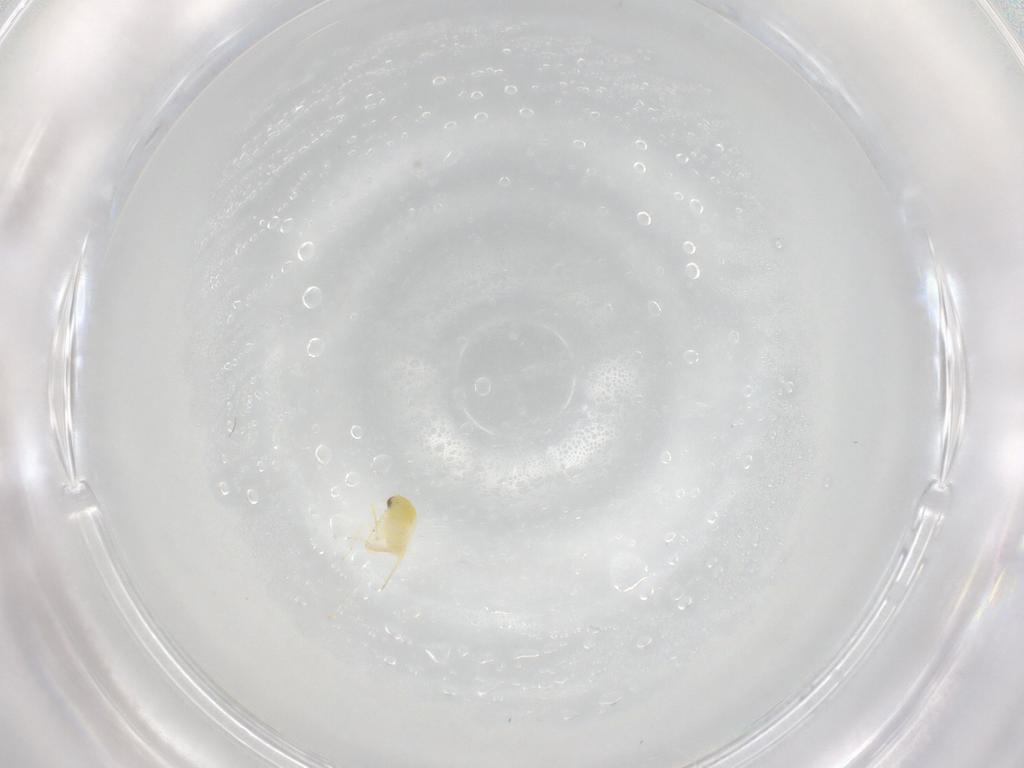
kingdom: Animalia
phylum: Arthropoda
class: Insecta
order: Hemiptera
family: Aleyrodidae
